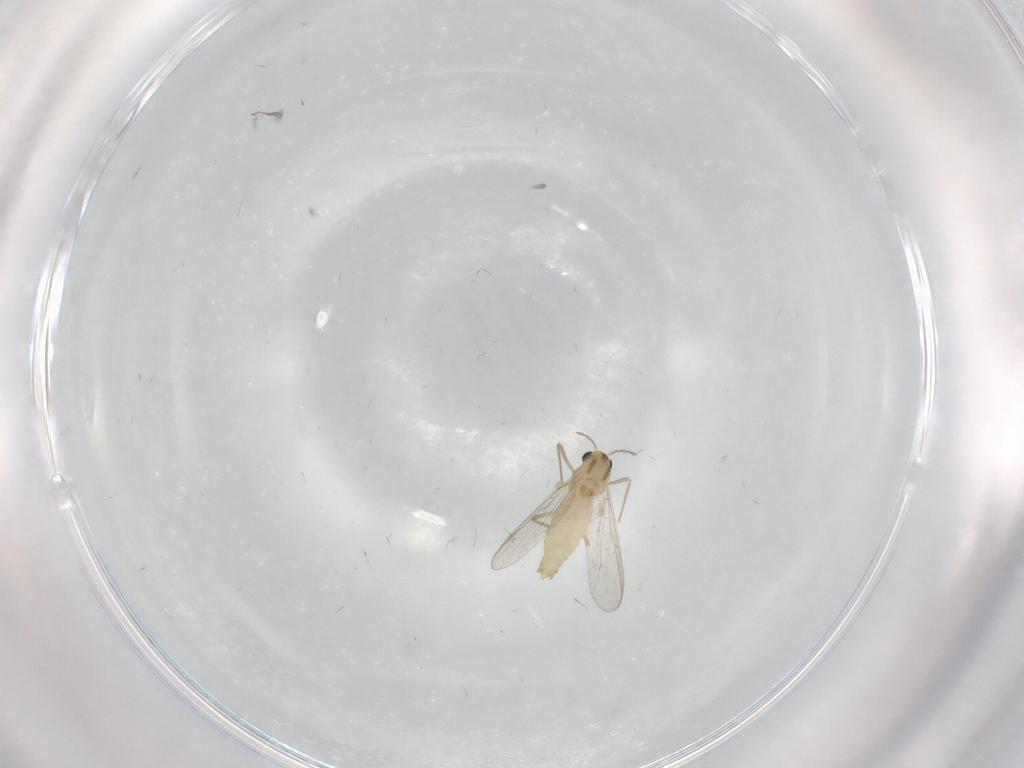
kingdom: Animalia
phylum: Arthropoda
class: Insecta
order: Diptera
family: Chironomidae
